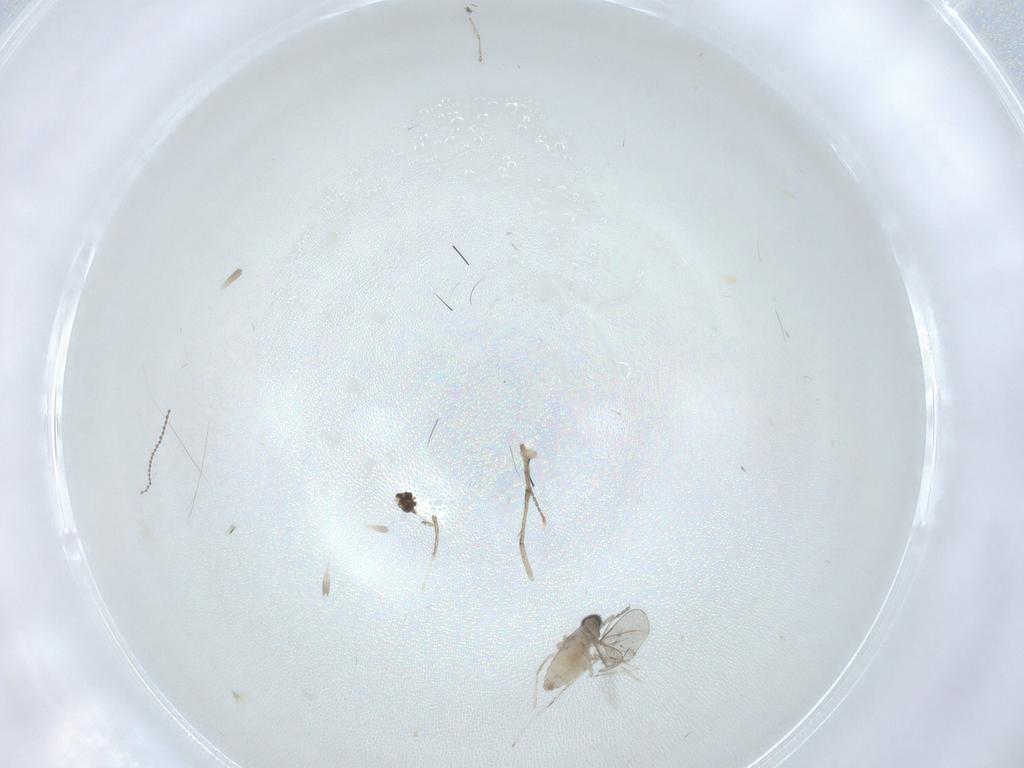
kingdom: Animalia
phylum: Arthropoda
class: Insecta
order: Diptera
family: Cecidomyiidae
